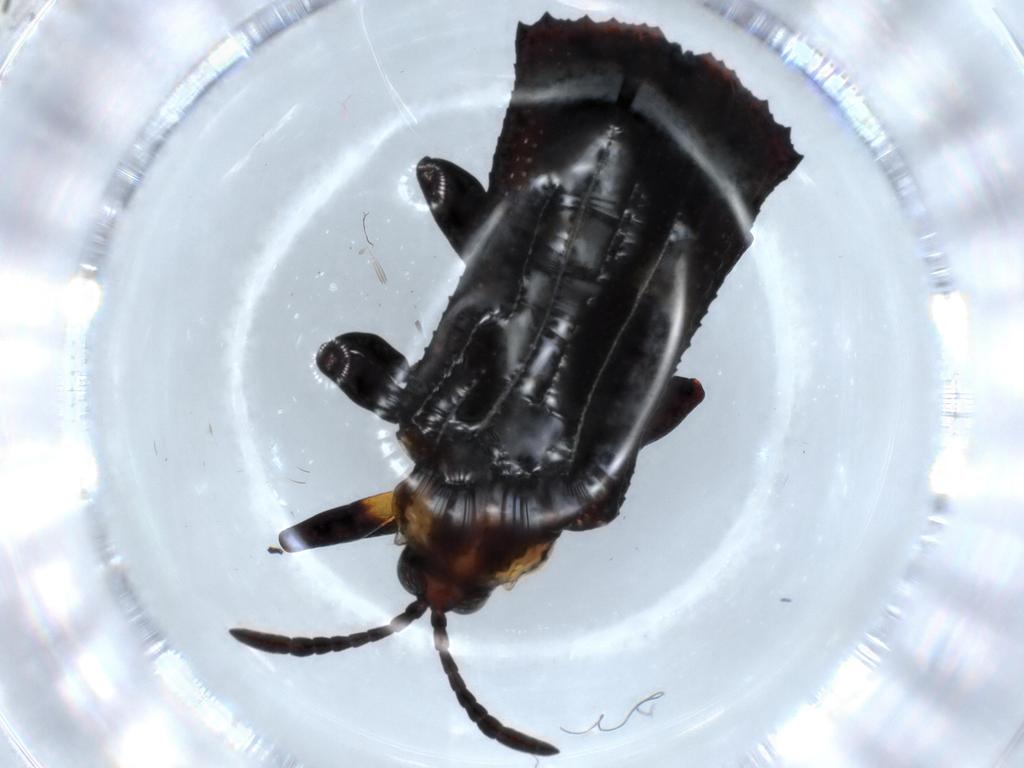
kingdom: Animalia
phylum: Arthropoda
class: Insecta
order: Coleoptera
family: Chrysomelidae
